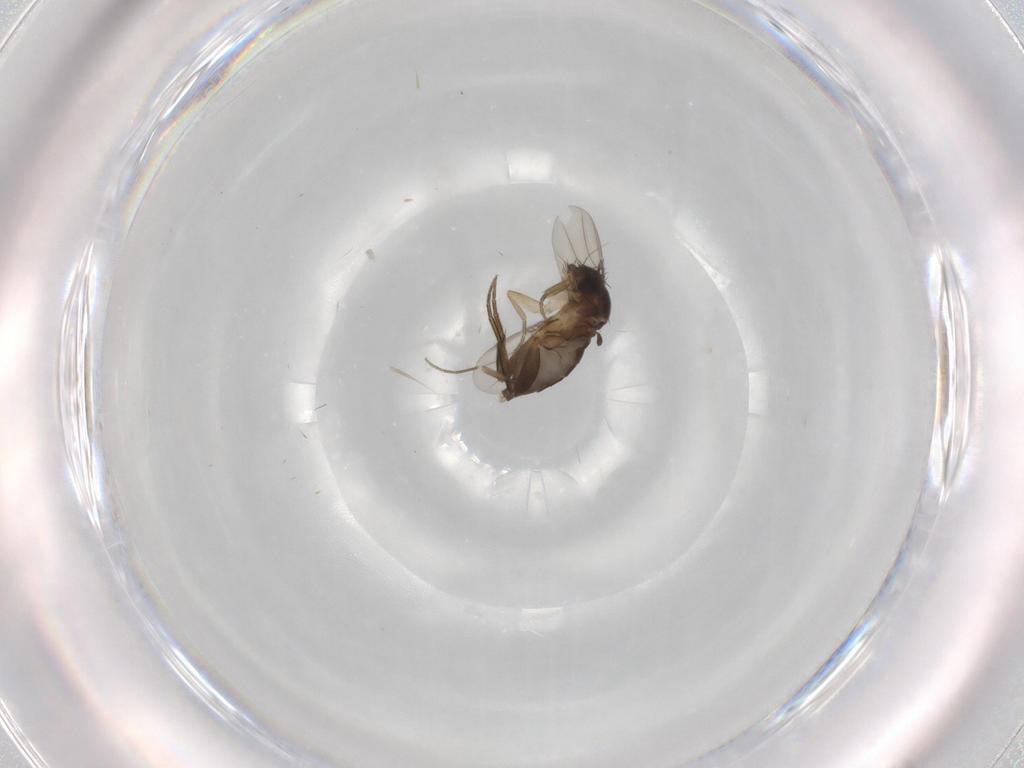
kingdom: Animalia
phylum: Arthropoda
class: Insecta
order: Diptera
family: Phoridae
